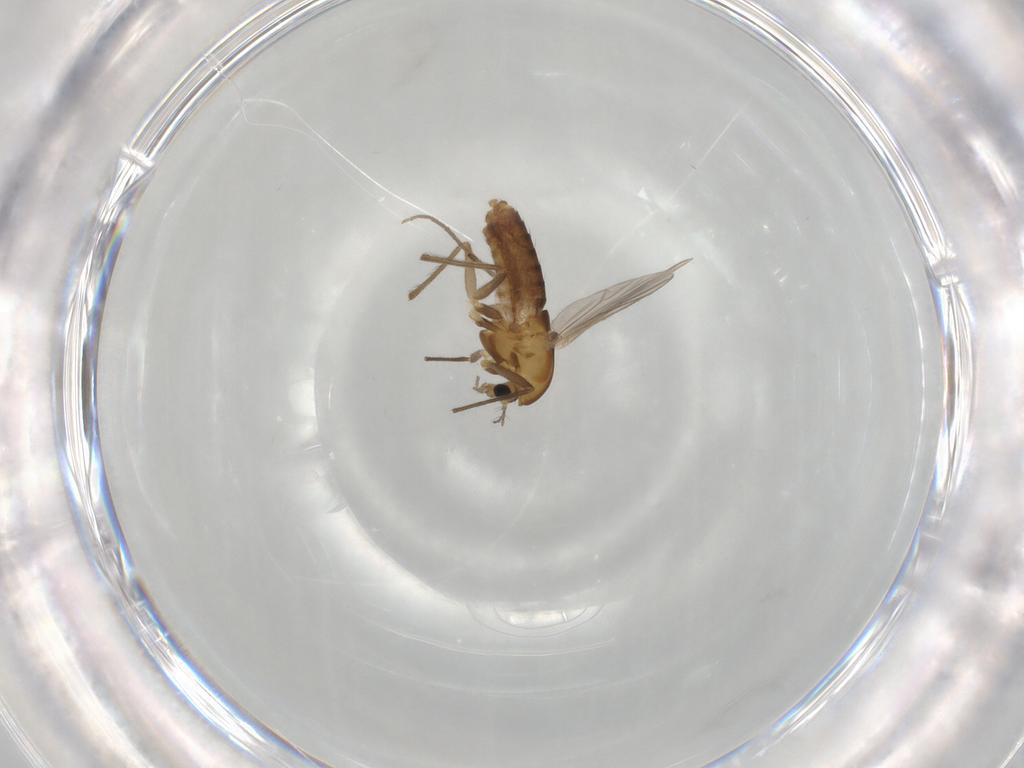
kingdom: Animalia
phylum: Arthropoda
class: Insecta
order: Diptera
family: Chironomidae
